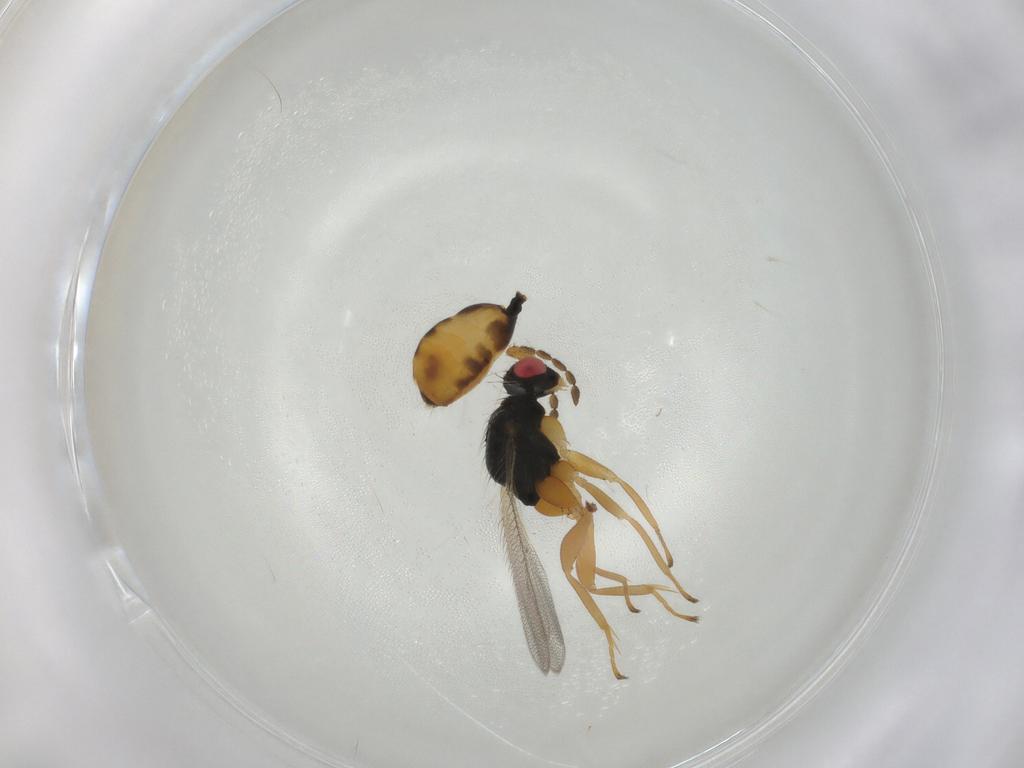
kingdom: Animalia
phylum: Arthropoda
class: Insecta
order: Hymenoptera
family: Eulophidae
